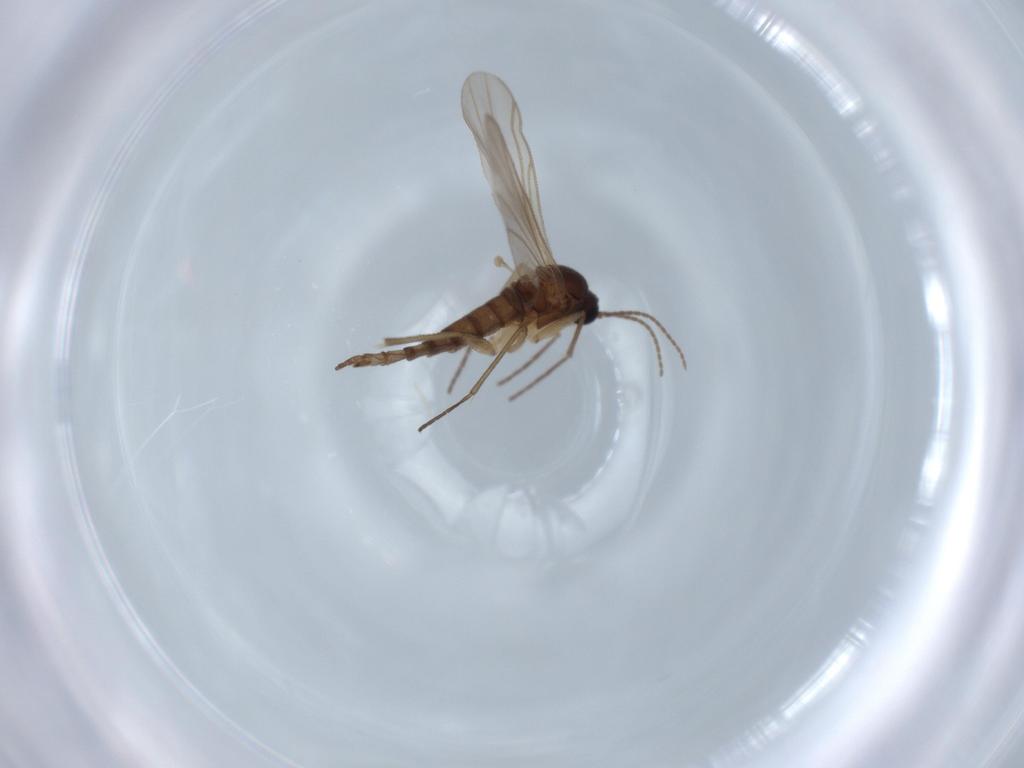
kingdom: Animalia
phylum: Arthropoda
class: Insecta
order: Diptera
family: Sciaridae
